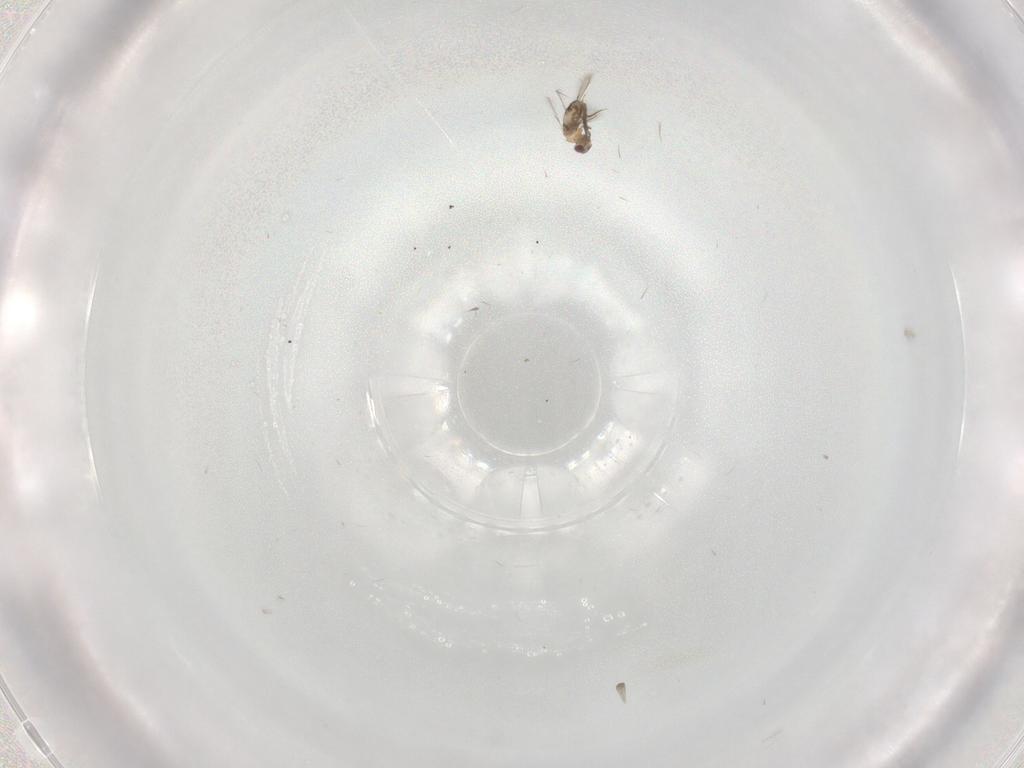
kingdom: Animalia
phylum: Arthropoda
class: Insecta
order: Hymenoptera
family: Mymaridae
